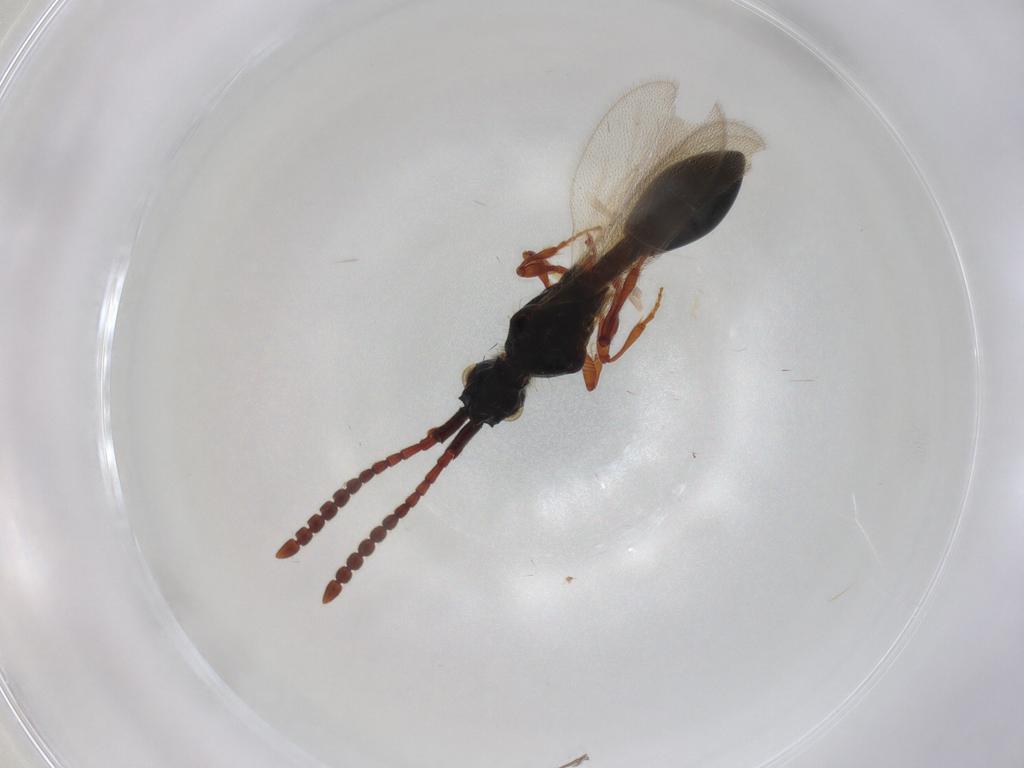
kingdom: Animalia
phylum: Arthropoda
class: Insecta
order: Hymenoptera
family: Diapriidae
